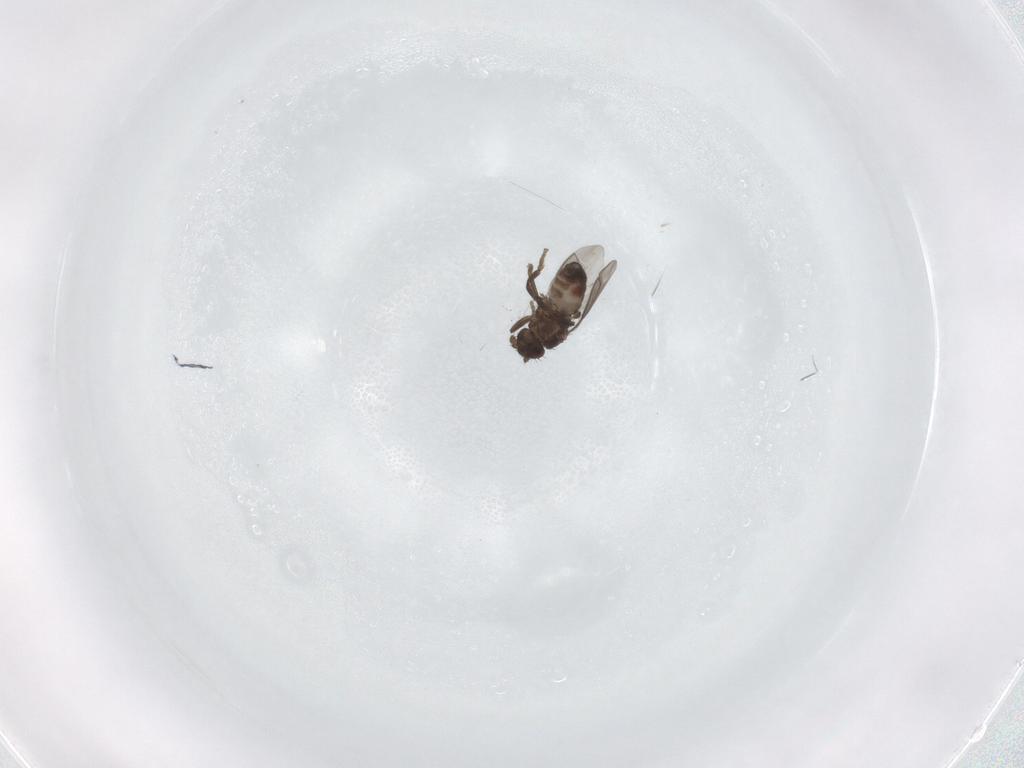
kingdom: Animalia
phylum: Arthropoda
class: Insecta
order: Diptera
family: Sphaeroceridae
